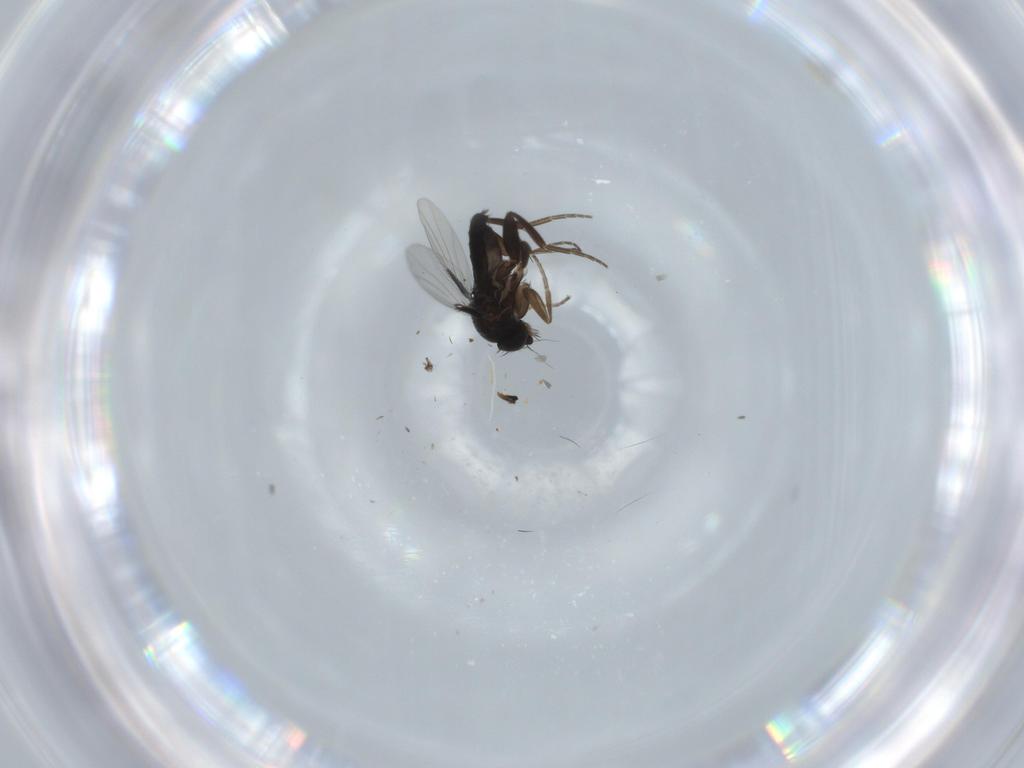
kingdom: Animalia
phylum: Arthropoda
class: Insecta
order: Diptera
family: Phoridae
